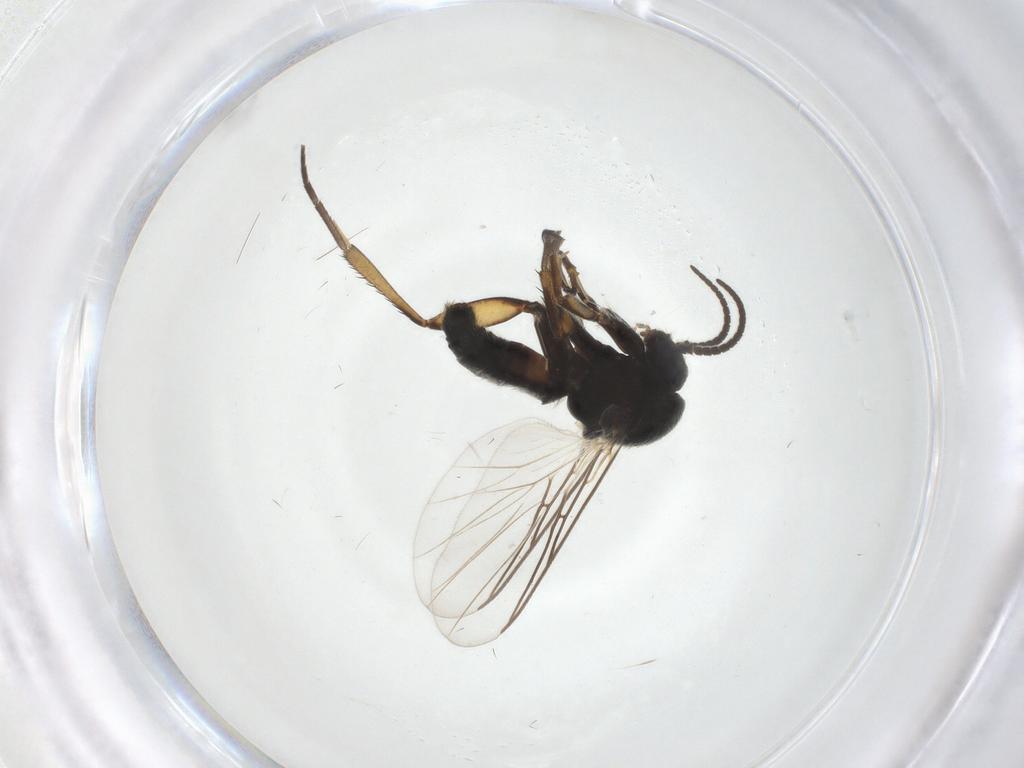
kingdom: Animalia
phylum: Arthropoda
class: Insecta
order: Diptera
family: Mycetophilidae
